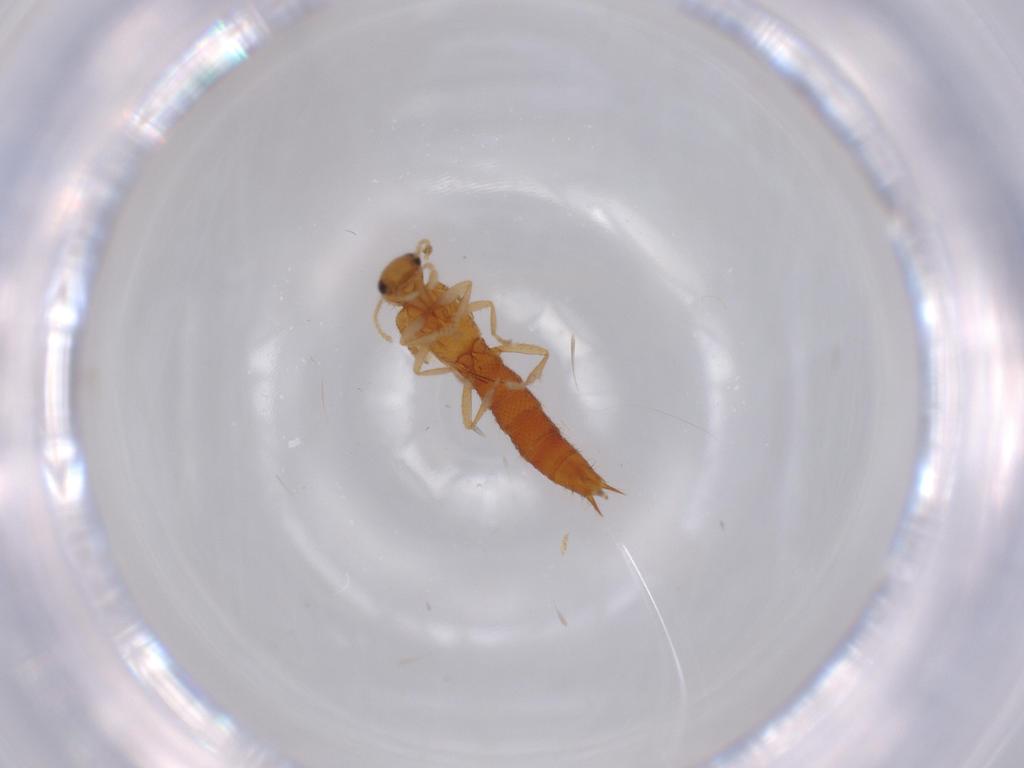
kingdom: Animalia
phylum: Arthropoda
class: Insecta
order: Coleoptera
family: Staphylinidae
